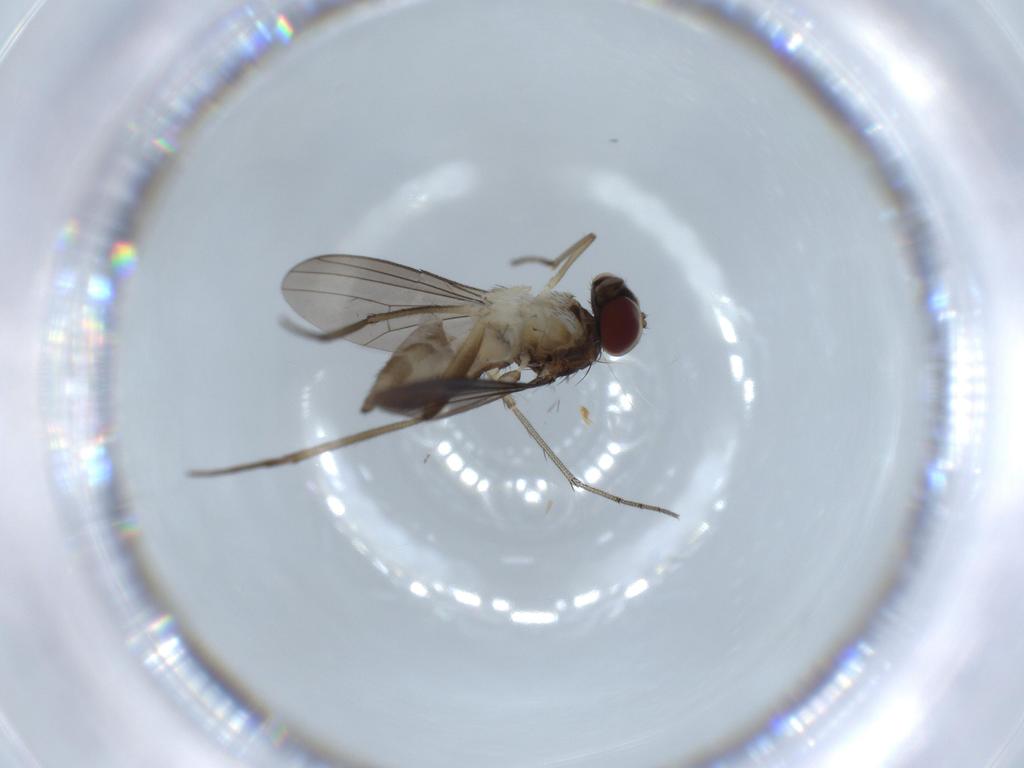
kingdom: Animalia
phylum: Arthropoda
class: Insecta
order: Diptera
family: Dolichopodidae
